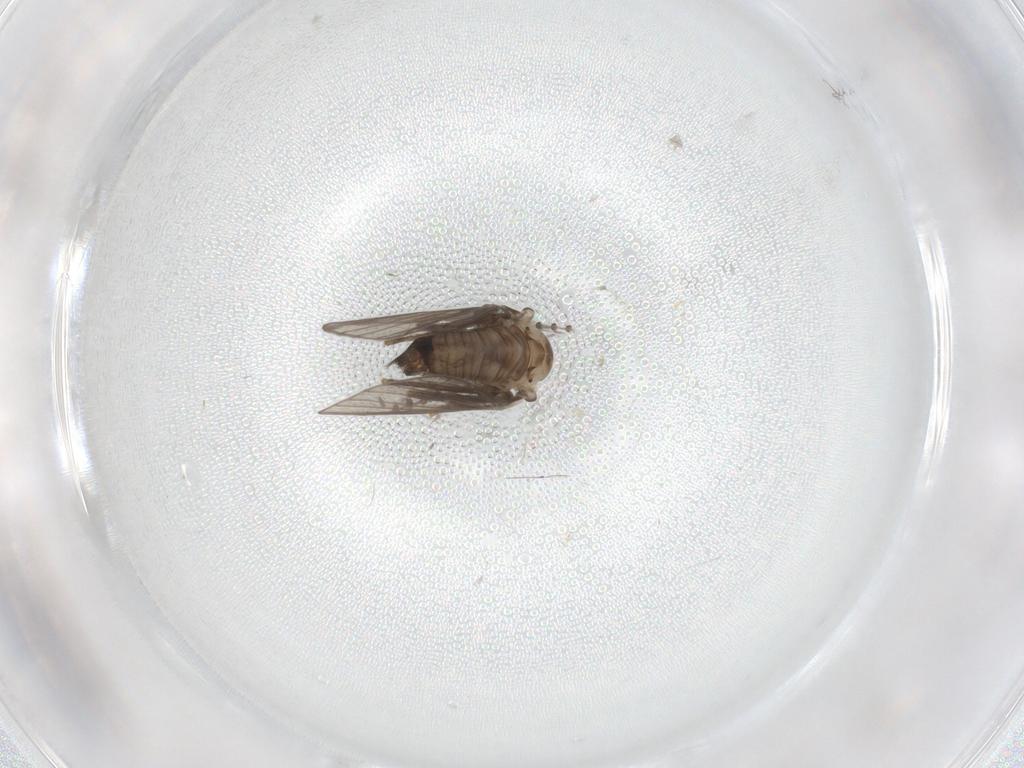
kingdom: Animalia
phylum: Arthropoda
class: Insecta
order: Diptera
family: Psychodidae
